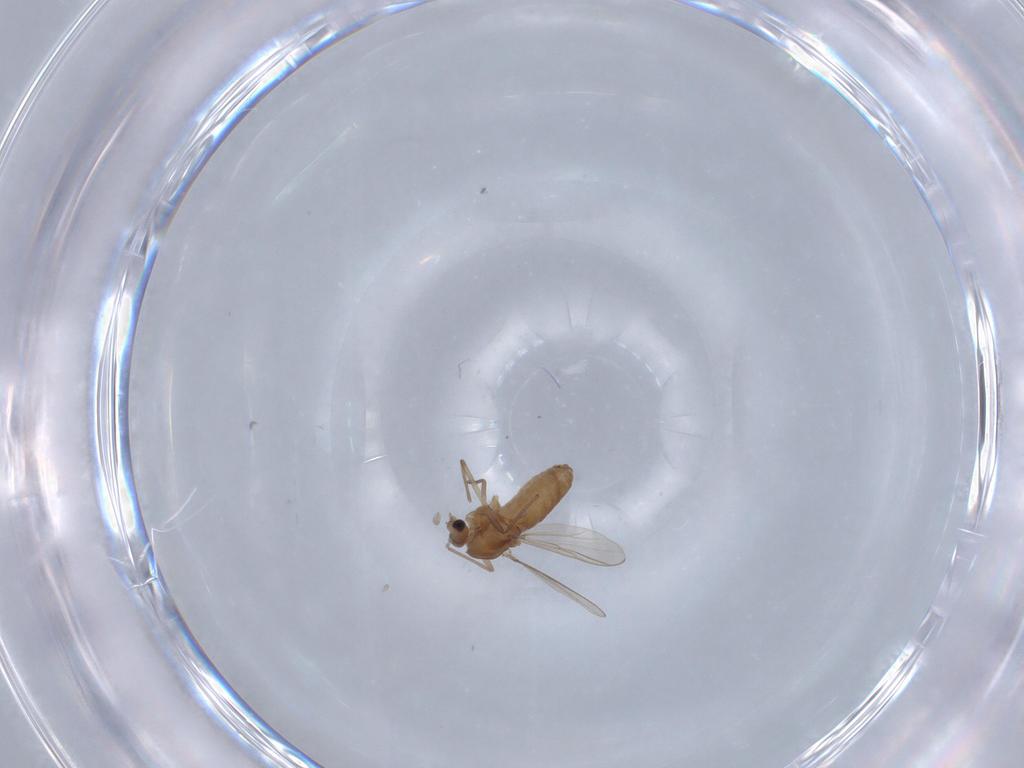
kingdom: Animalia
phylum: Arthropoda
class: Insecta
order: Diptera
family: Chironomidae
